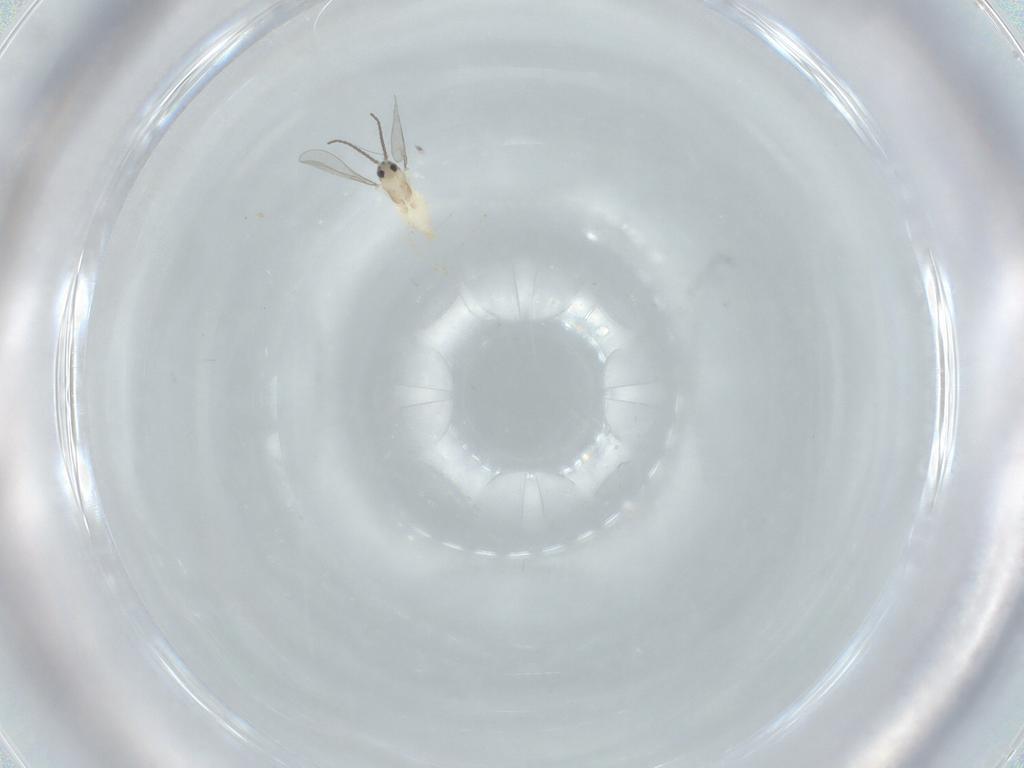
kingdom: Animalia
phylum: Arthropoda
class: Insecta
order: Diptera
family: Cecidomyiidae
